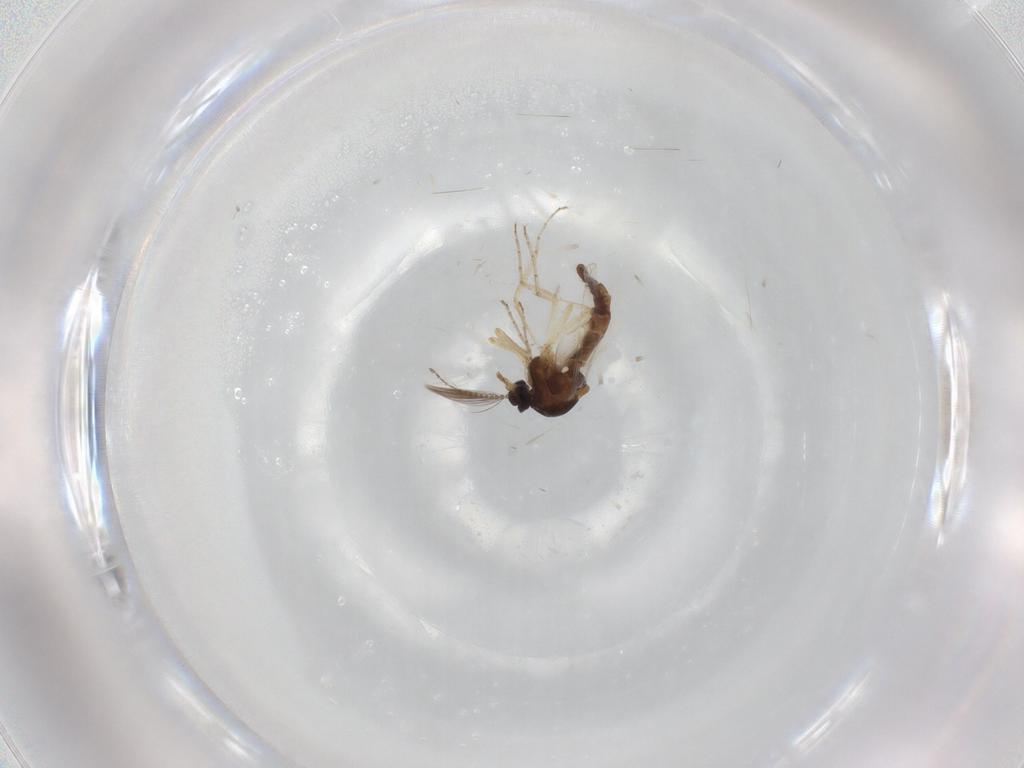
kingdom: Animalia
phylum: Arthropoda
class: Insecta
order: Diptera
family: Ceratopogonidae
